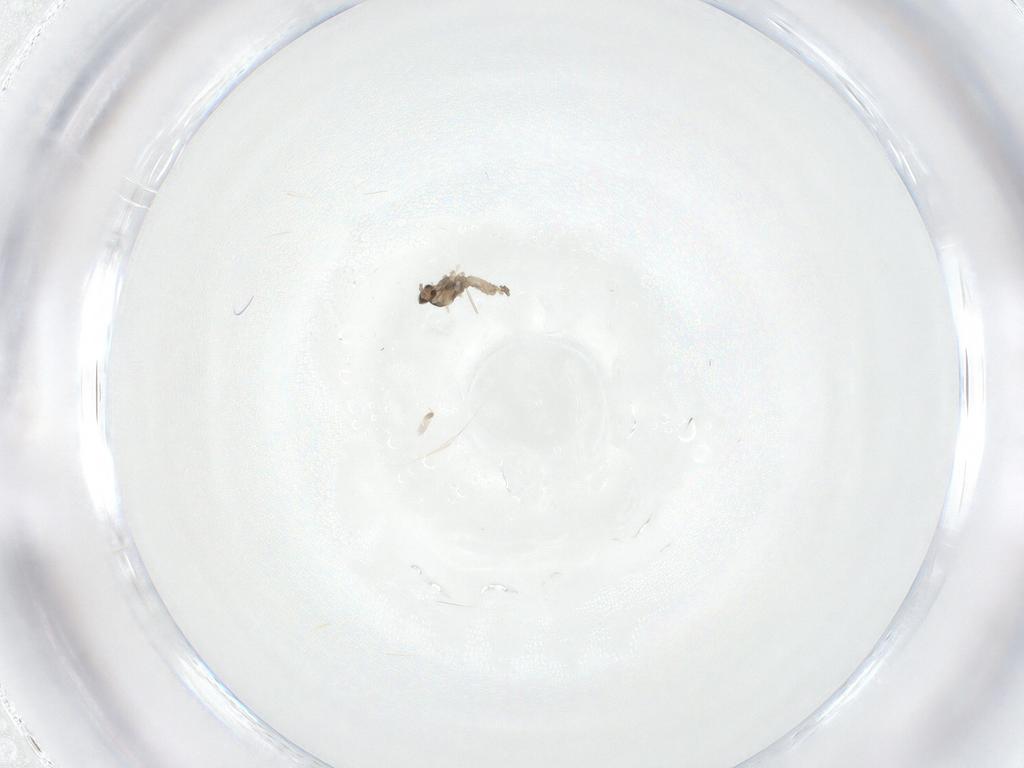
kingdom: Animalia
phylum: Arthropoda
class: Insecta
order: Diptera
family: Cecidomyiidae
